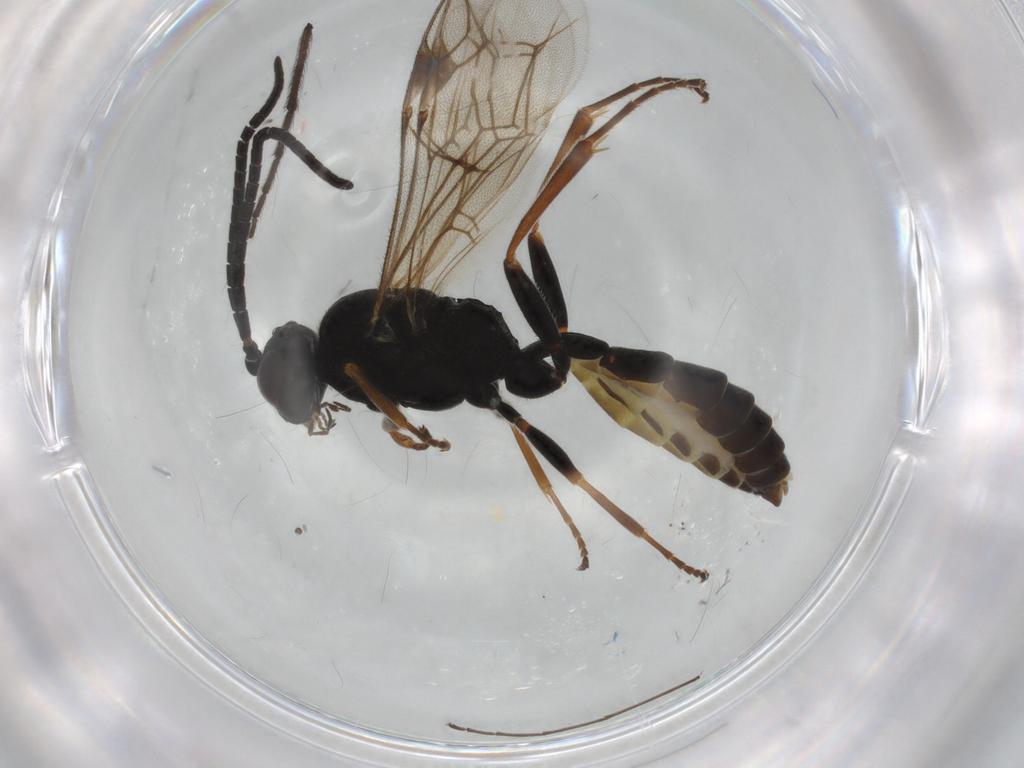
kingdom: Animalia
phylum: Arthropoda
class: Insecta
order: Hymenoptera
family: Ichneumonidae
